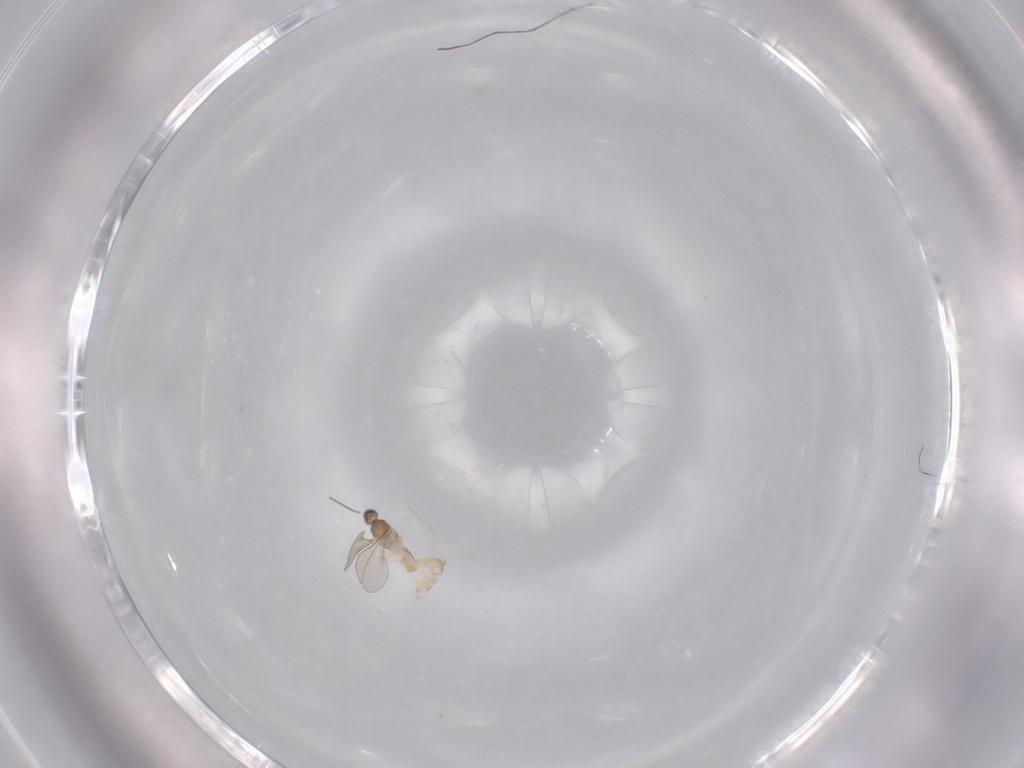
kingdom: Animalia
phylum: Arthropoda
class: Insecta
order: Diptera
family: Cecidomyiidae
